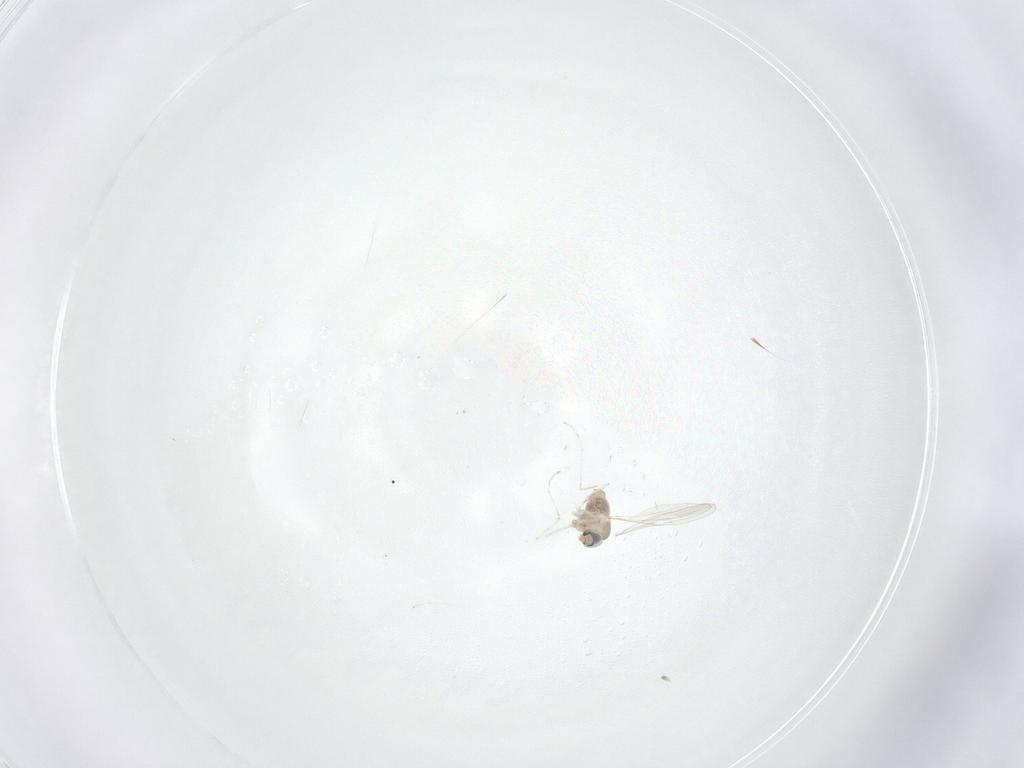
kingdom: Animalia
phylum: Arthropoda
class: Insecta
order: Diptera
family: Cecidomyiidae
